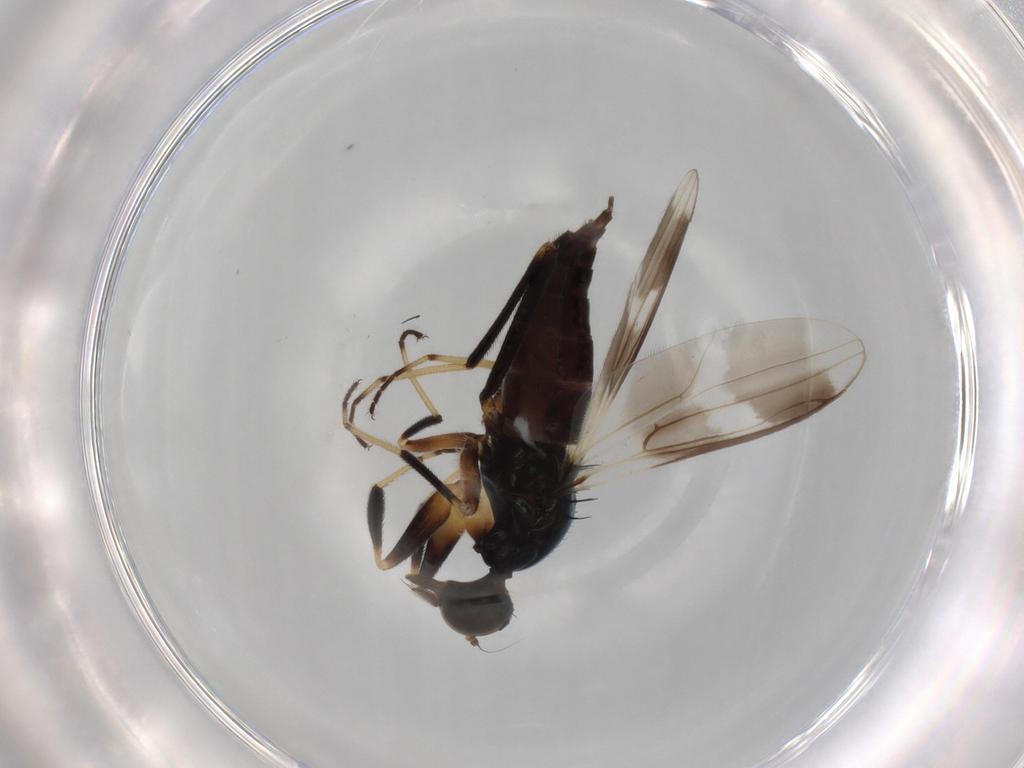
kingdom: Animalia
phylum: Arthropoda
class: Insecta
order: Diptera
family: Hybotidae
